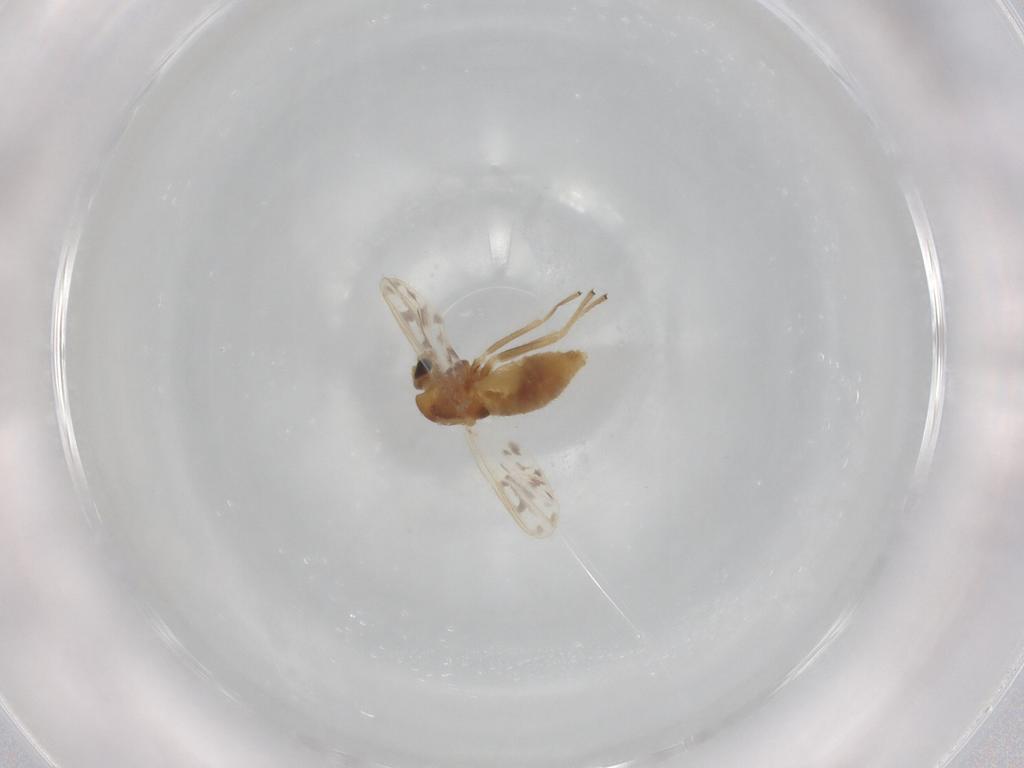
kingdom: Animalia
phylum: Arthropoda
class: Insecta
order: Diptera
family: Chironomidae
